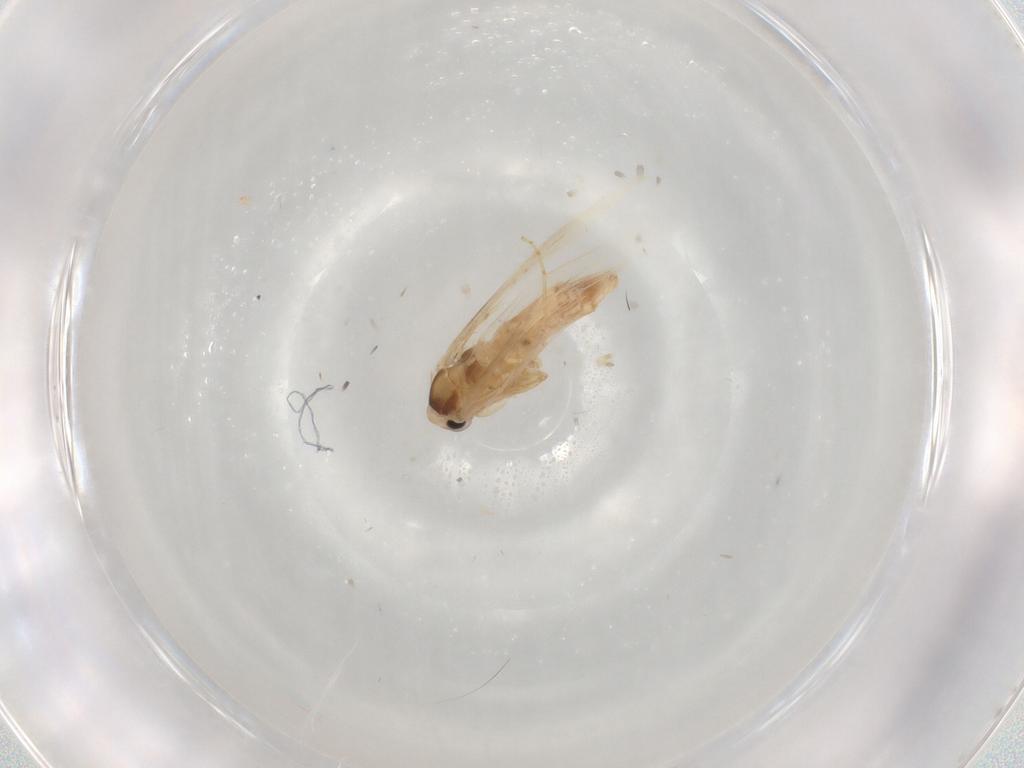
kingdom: Animalia
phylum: Arthropoda
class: Insecta
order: Lepidoptera
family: Nepticulidae
